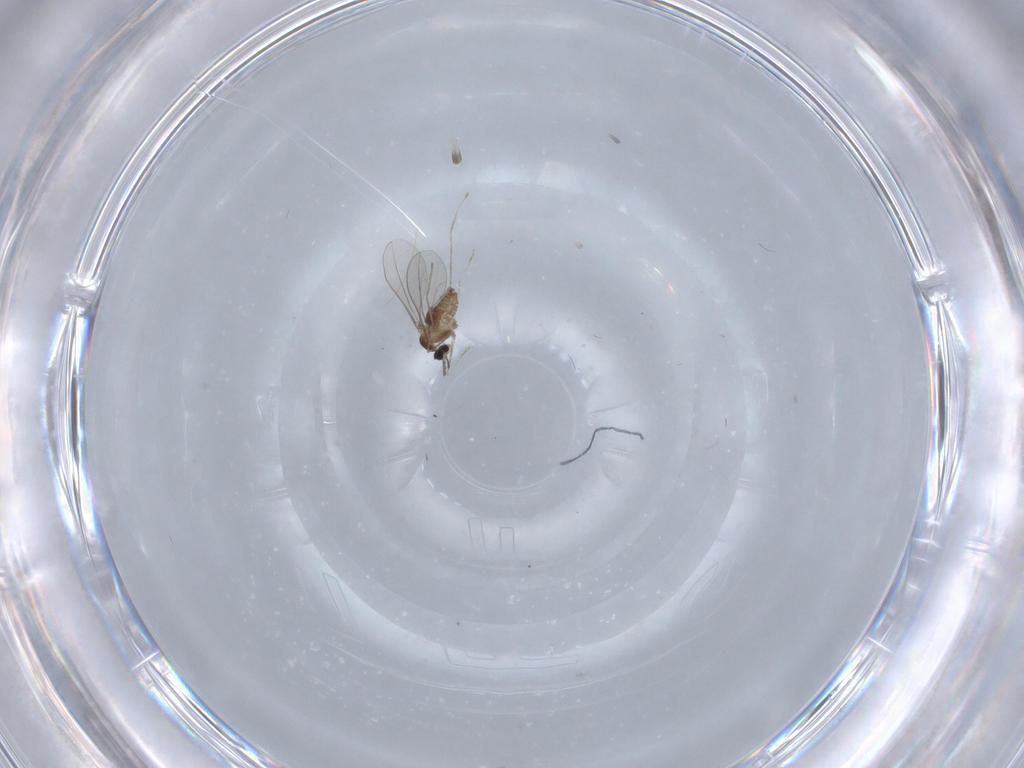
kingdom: Animalia
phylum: Arthropoda
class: Insecta
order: Diptera
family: Cecidomyiidae
